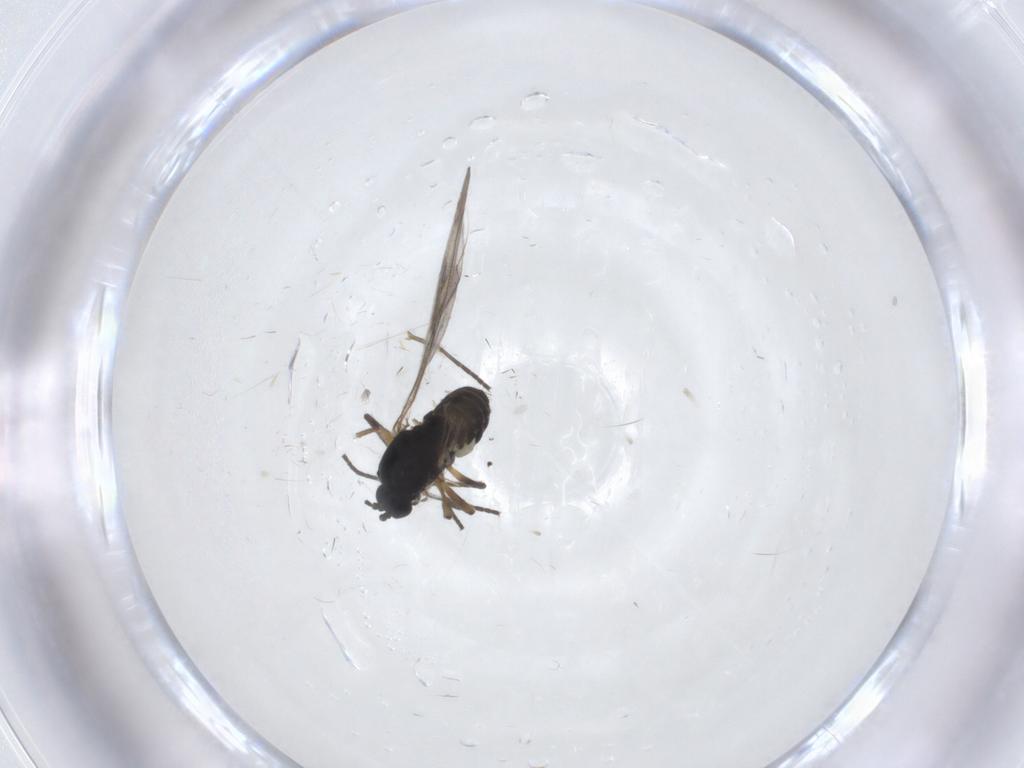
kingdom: Animalia
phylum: Arthropoda
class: Insecta
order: Diptera
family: Sciaridae
